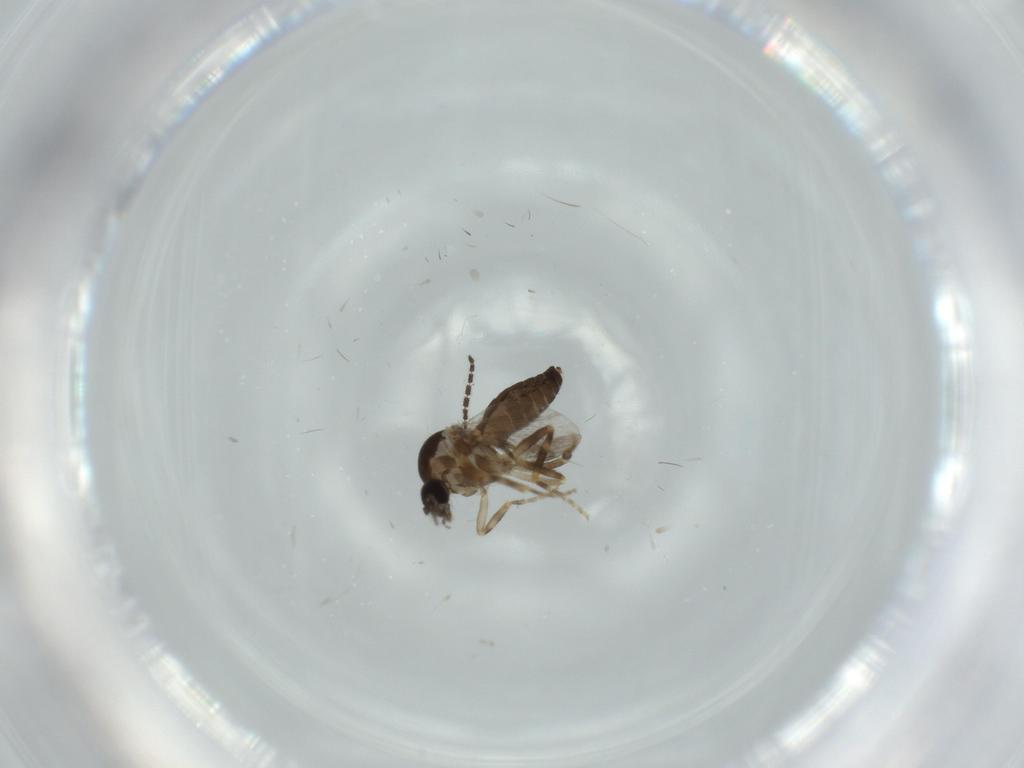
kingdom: Animalia
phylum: Arthropoda
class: Insecta
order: Diptera
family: Ceratopogonidae
